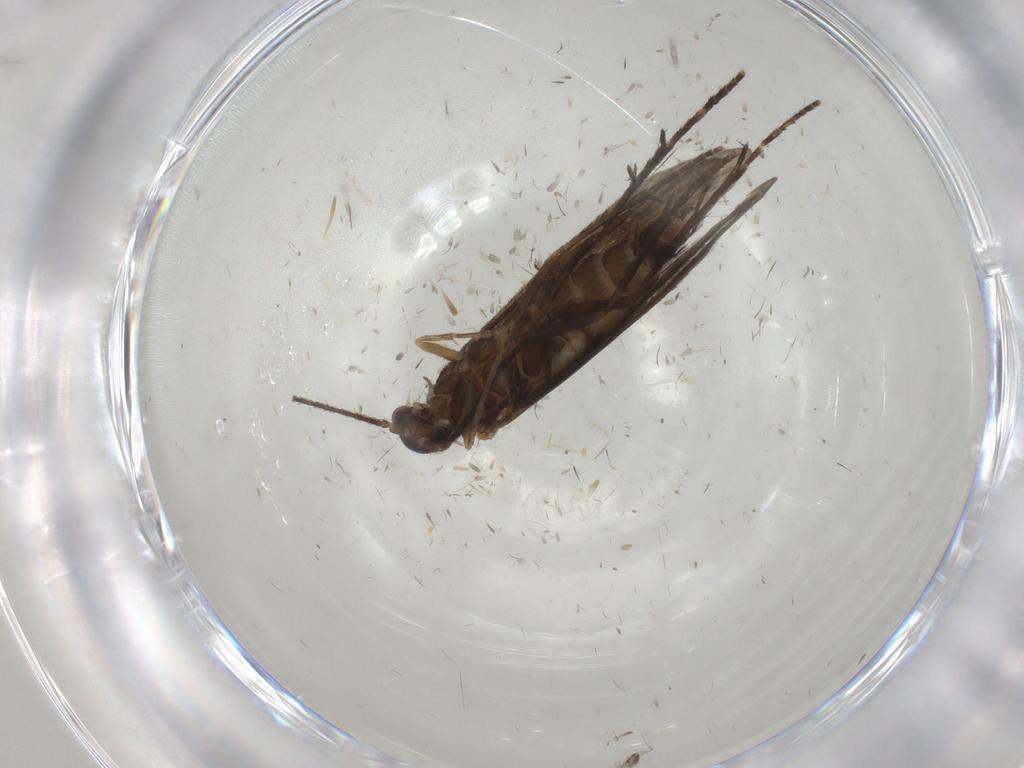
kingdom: Animalia
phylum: Arthropoda
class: Insecta
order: Trichoptera
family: Xiphocentronidae
